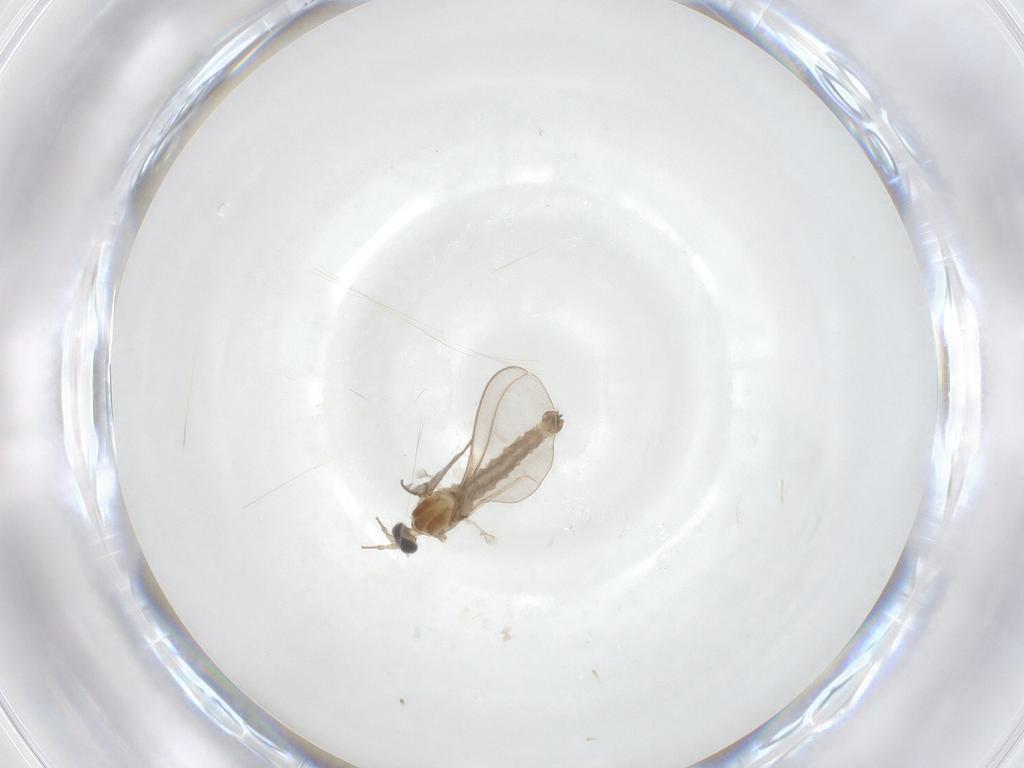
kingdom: Animalia
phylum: Arthropoda
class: Insecta
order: Diptera
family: Cecidomyiidae
